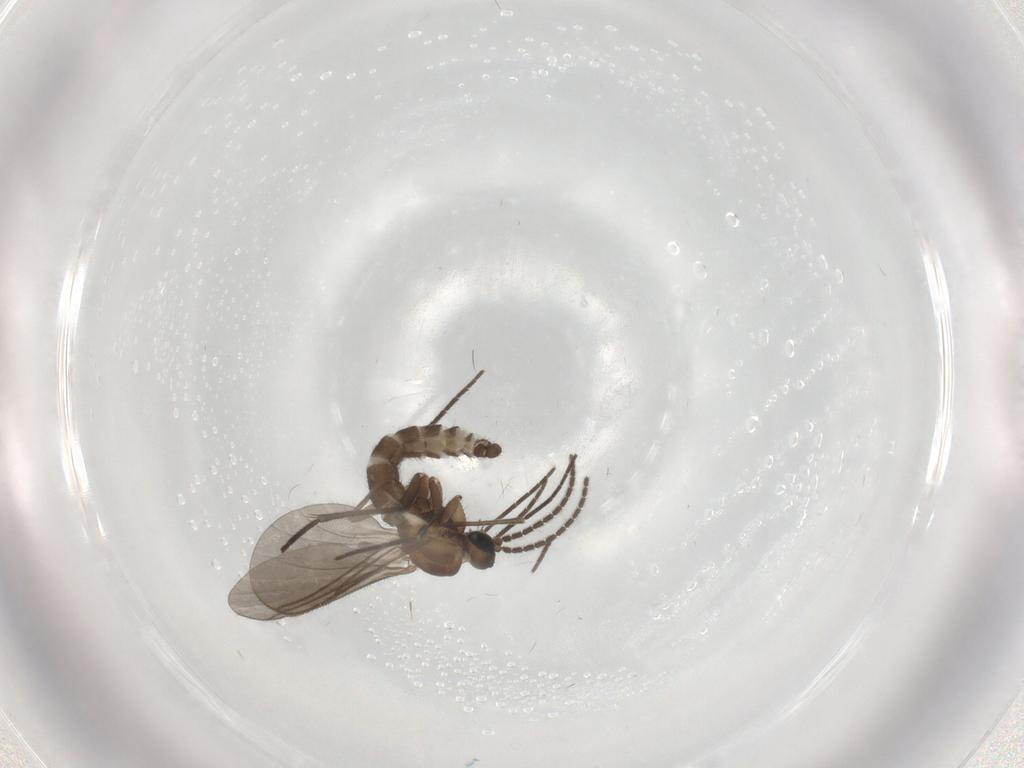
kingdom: Animalia
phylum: Arthropoda
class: Insecta
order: Diptera
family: Sciaridae
